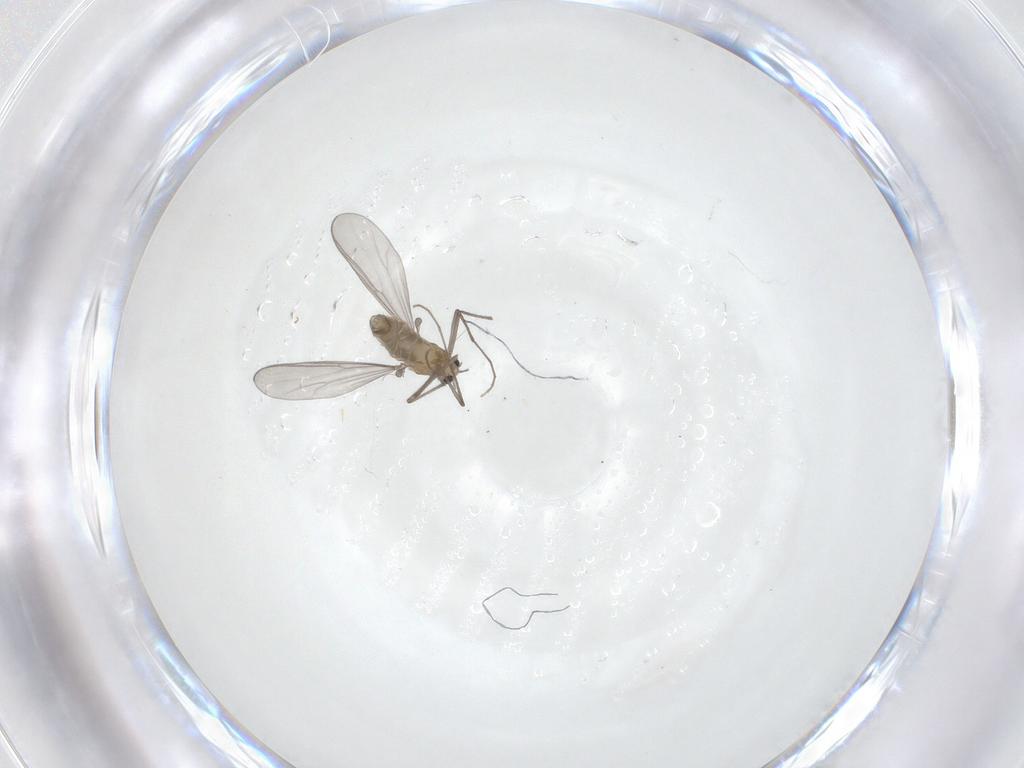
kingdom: Animalia
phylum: Arthropoda
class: Insecta
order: Diptera
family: Chironomidae
